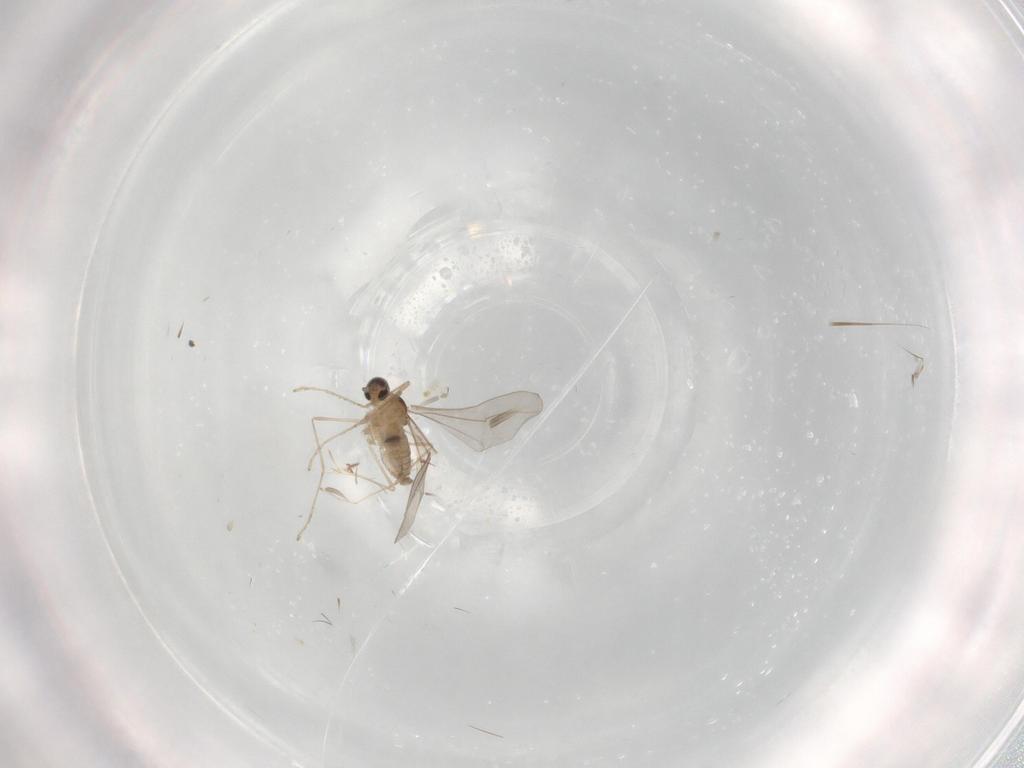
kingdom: Animalia
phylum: Arthropoda
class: Insecta
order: Diptera
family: Cecidomyiidae
